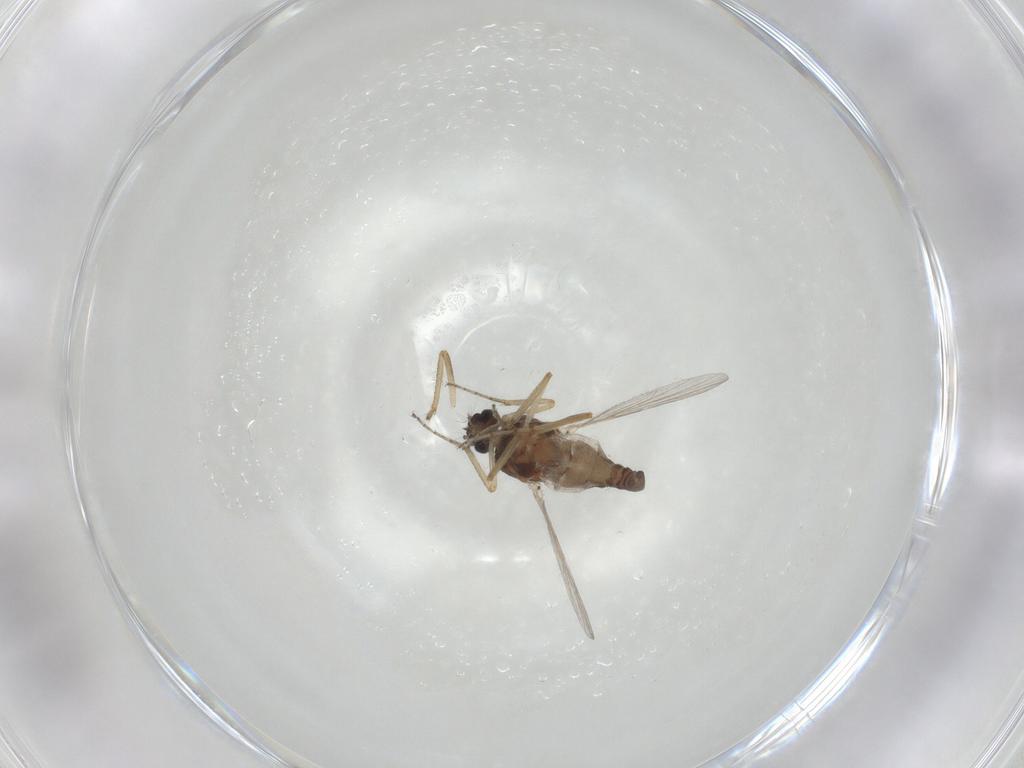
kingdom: Animalia
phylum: Arthropoda
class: Insecta
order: Diptera
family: Ceratopogonidae
